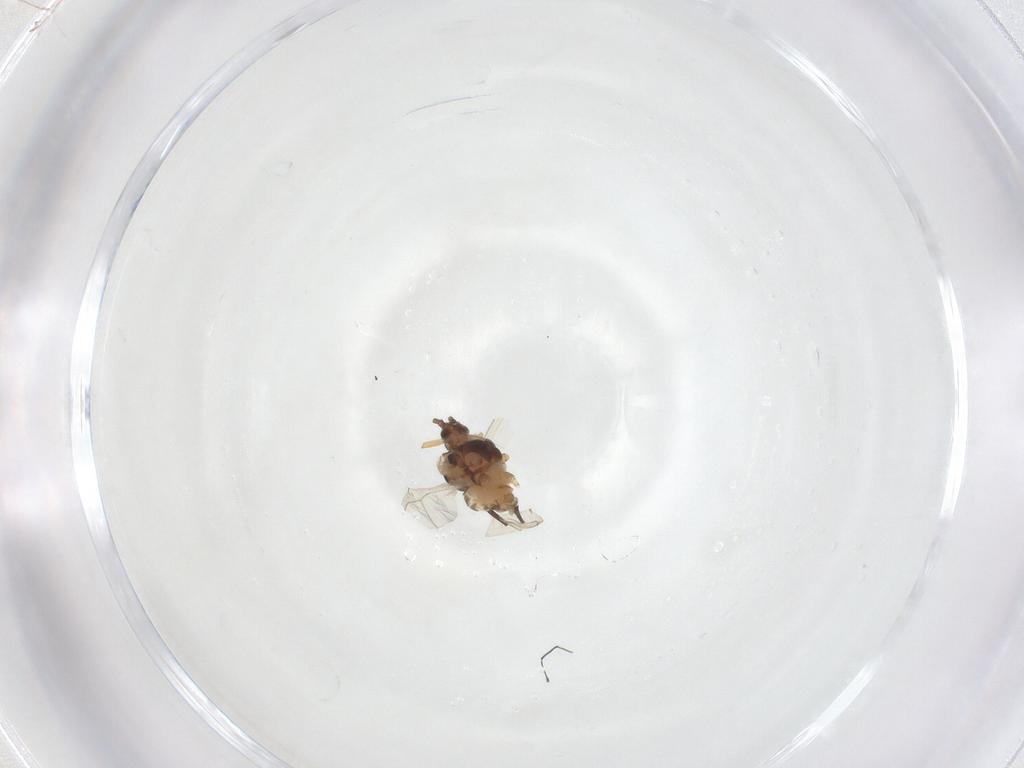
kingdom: Animalia
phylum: Arthropoda
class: Insecta
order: Hemiptera
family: Aphididae
